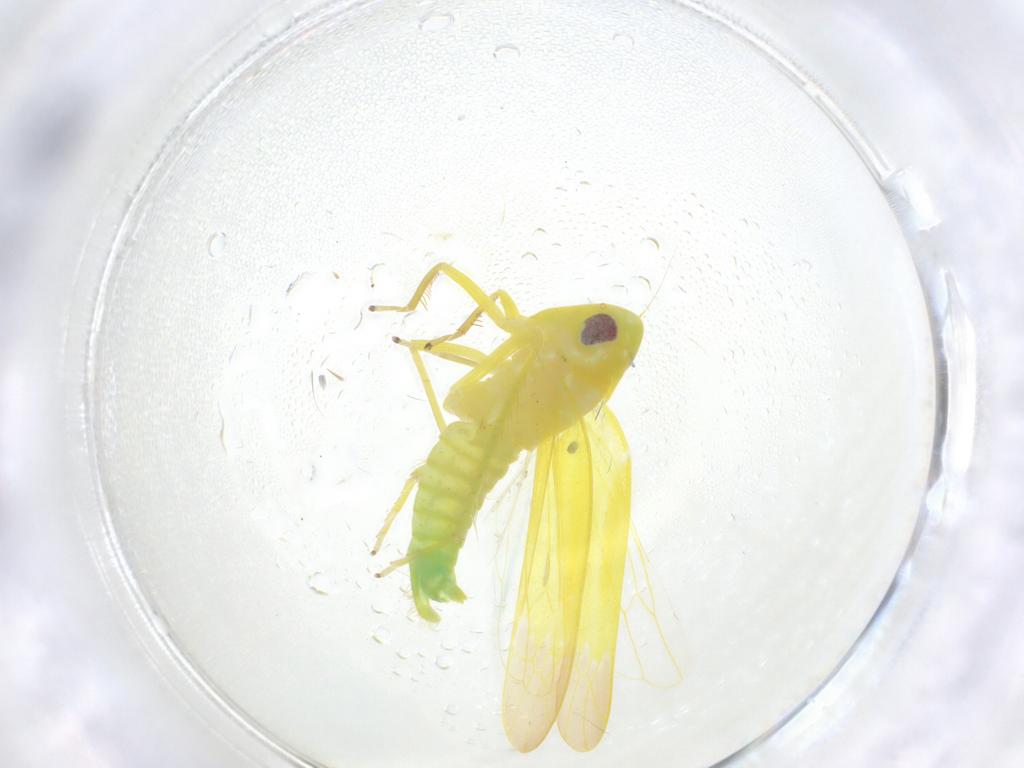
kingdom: Animalia
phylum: Arthropoda
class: Insecta
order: Hemiptera
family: Cicadellidae
